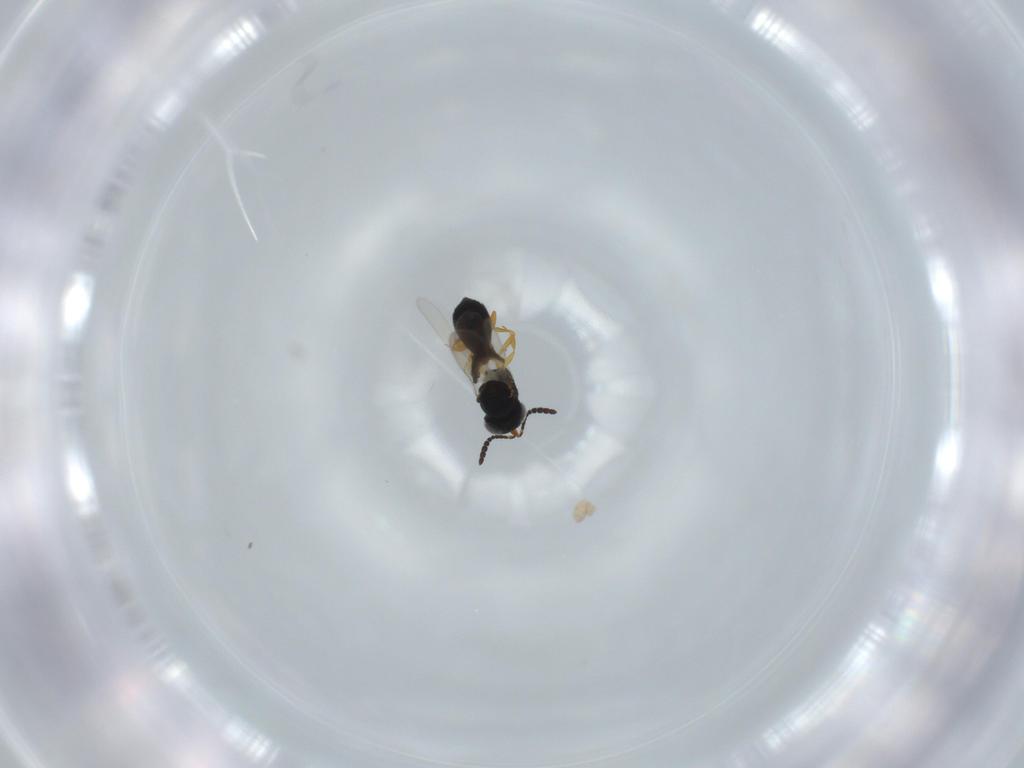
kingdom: Animalia
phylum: Arthropoda
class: Insecta
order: Hymenoptera
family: Scelionidae
